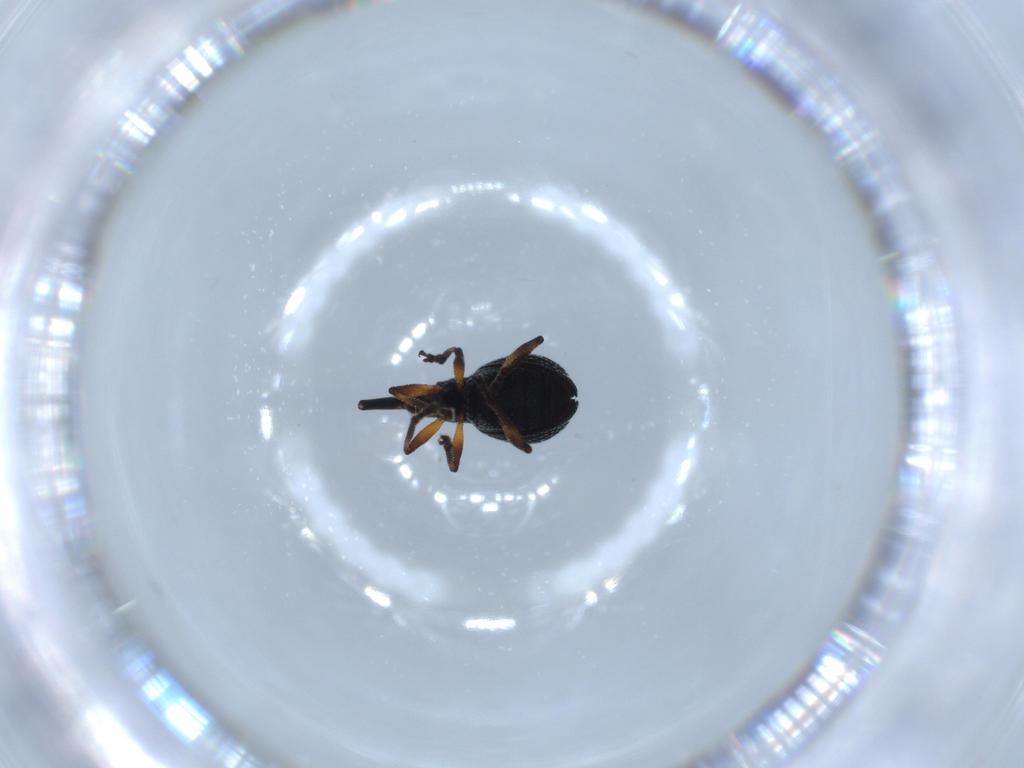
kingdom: Animalia
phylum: Arthropoda
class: Insecta
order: Coleoptera
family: Brentidae
